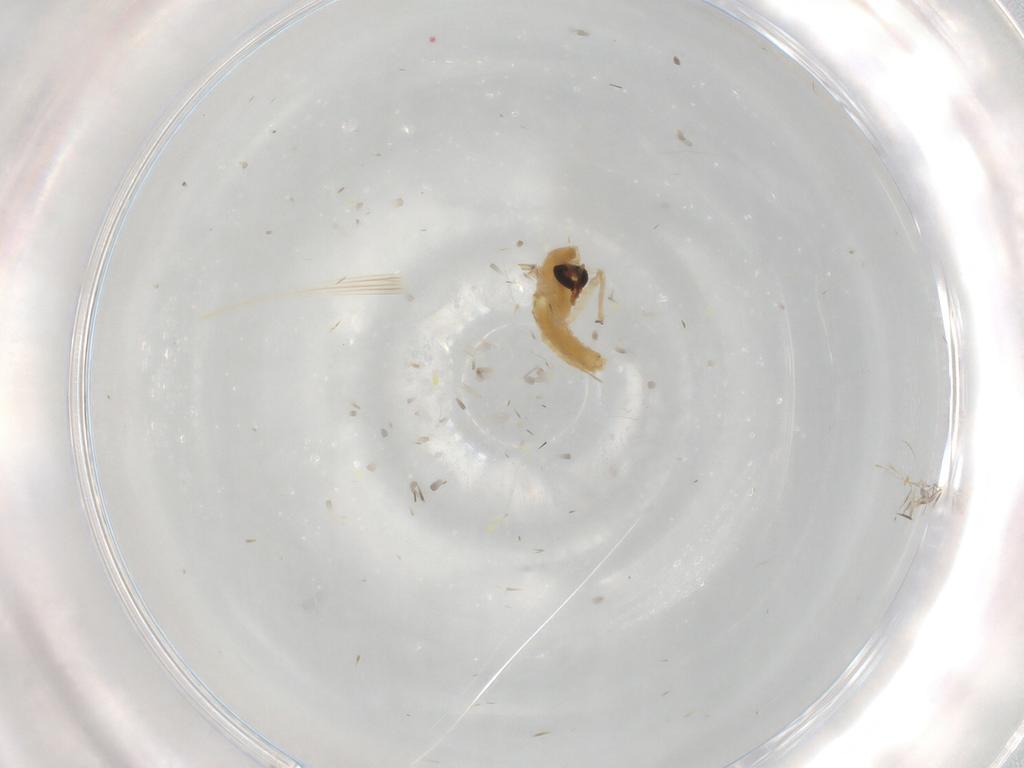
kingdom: Animalia
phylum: Arthropoda
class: Insecta
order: Diptera
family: Chironomidae
